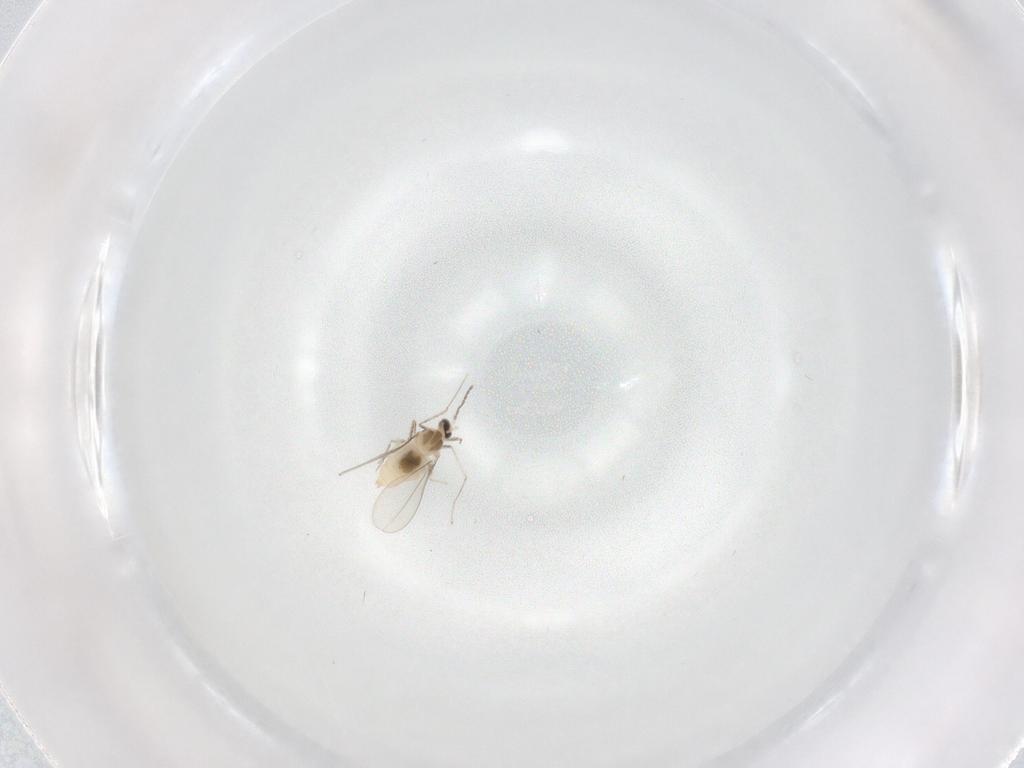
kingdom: Animalia
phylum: Arthropoda
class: Insecta
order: Diptera
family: Cecidomyiidae
